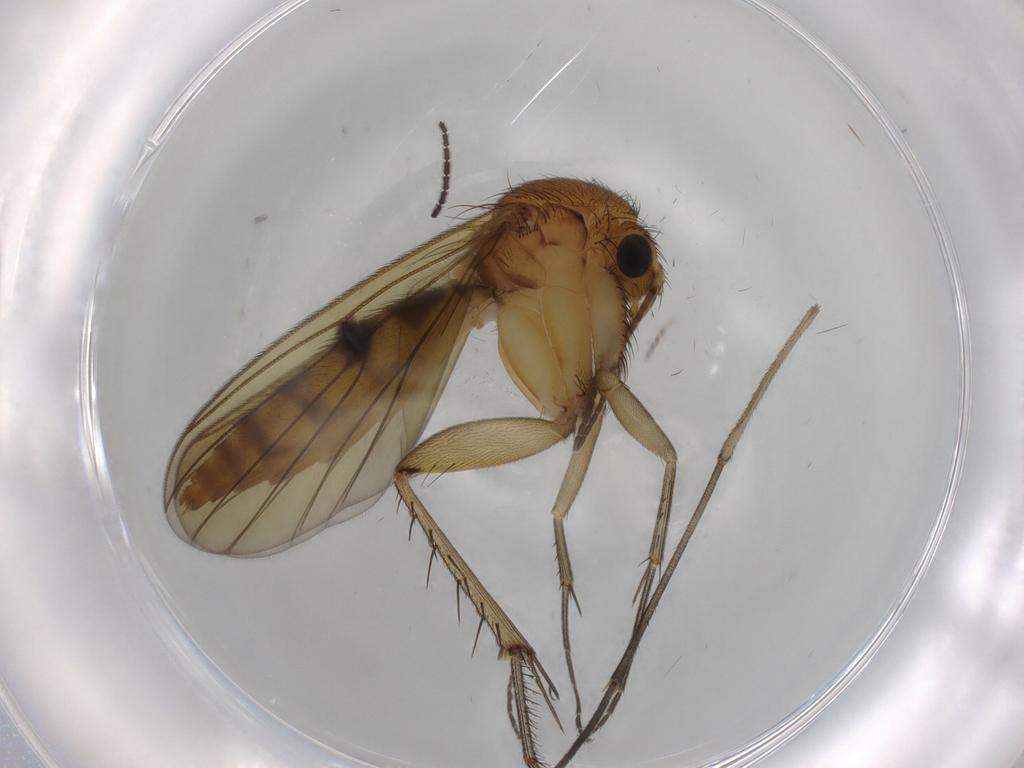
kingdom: Animalia
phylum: Arthropoda
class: Insecta
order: Diptera
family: Mycetophilidae
